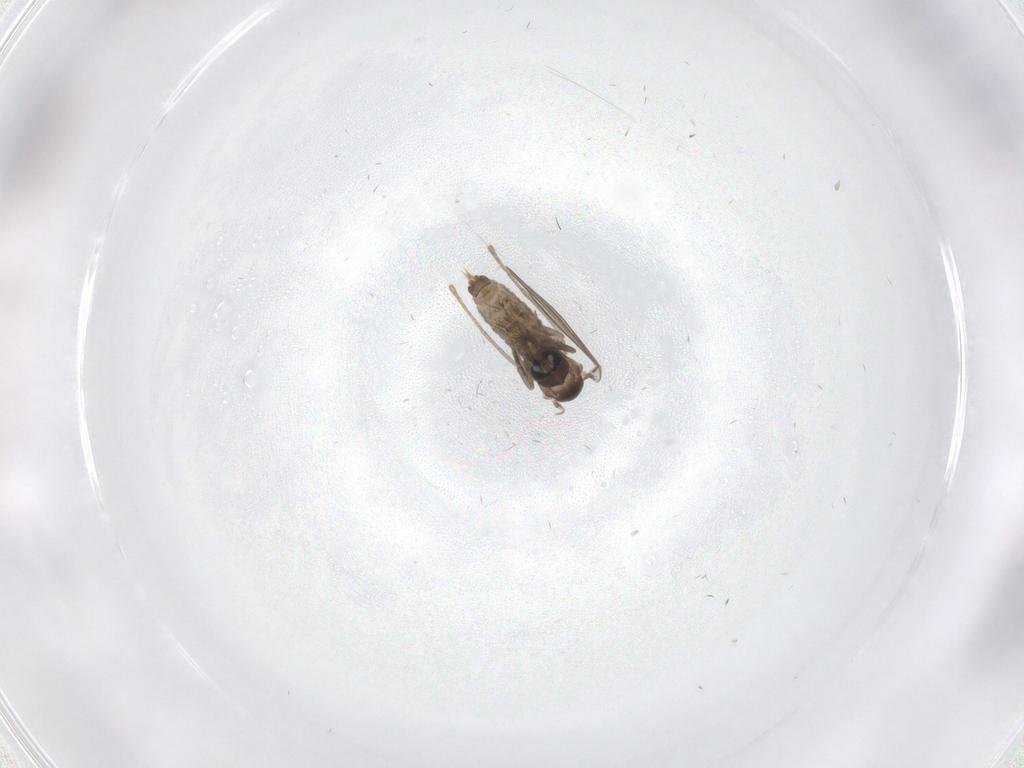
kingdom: Animalia
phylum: Arthropoda
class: Insecta
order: Diptera
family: Psychodidae
